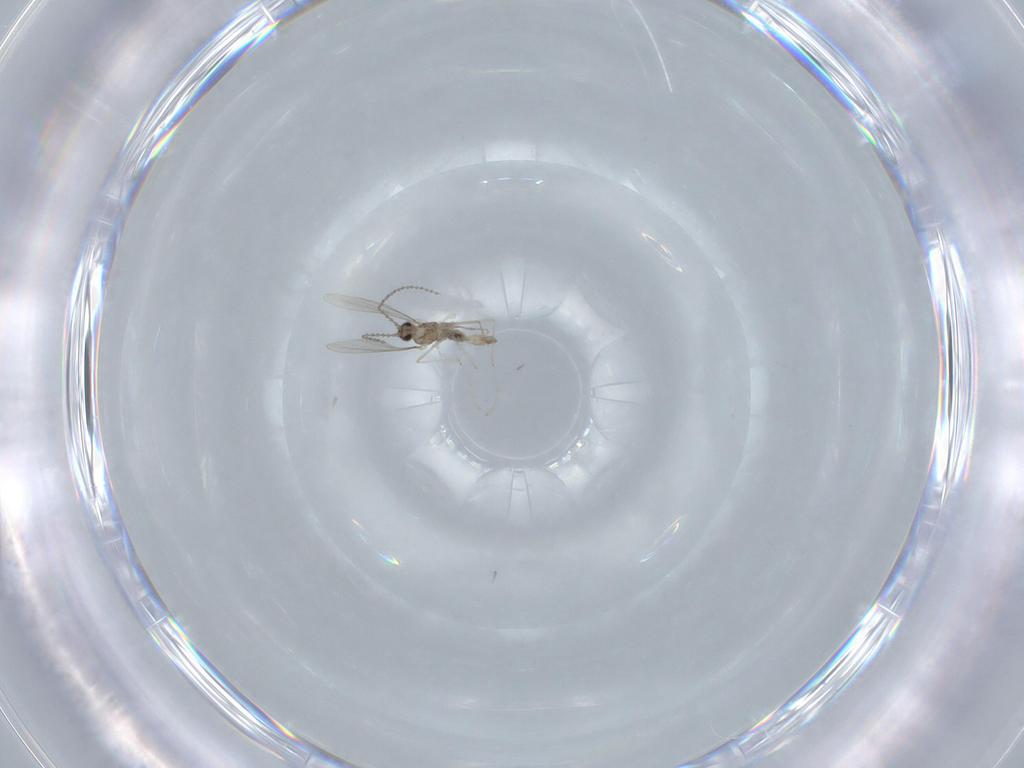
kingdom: Animalia
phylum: Arthropoda
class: Insecta
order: Diptera
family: Cecidomyiidae
